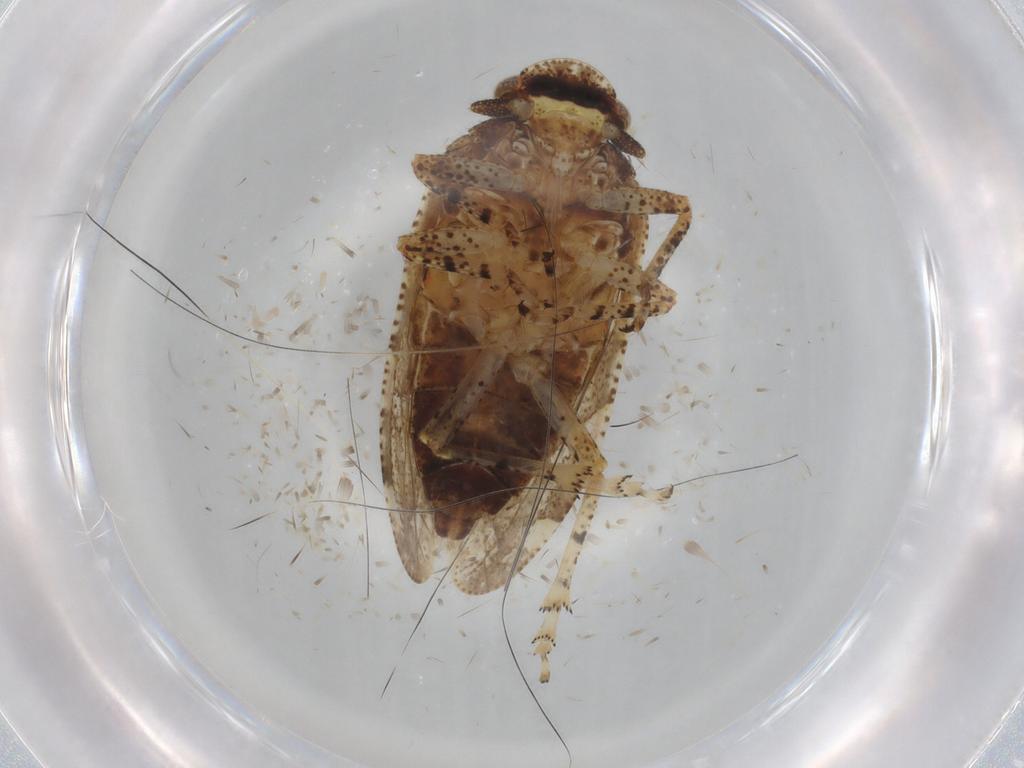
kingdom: Animalia
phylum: Arthropoda
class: Insecta
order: Hemiptera
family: Tettigometridae
